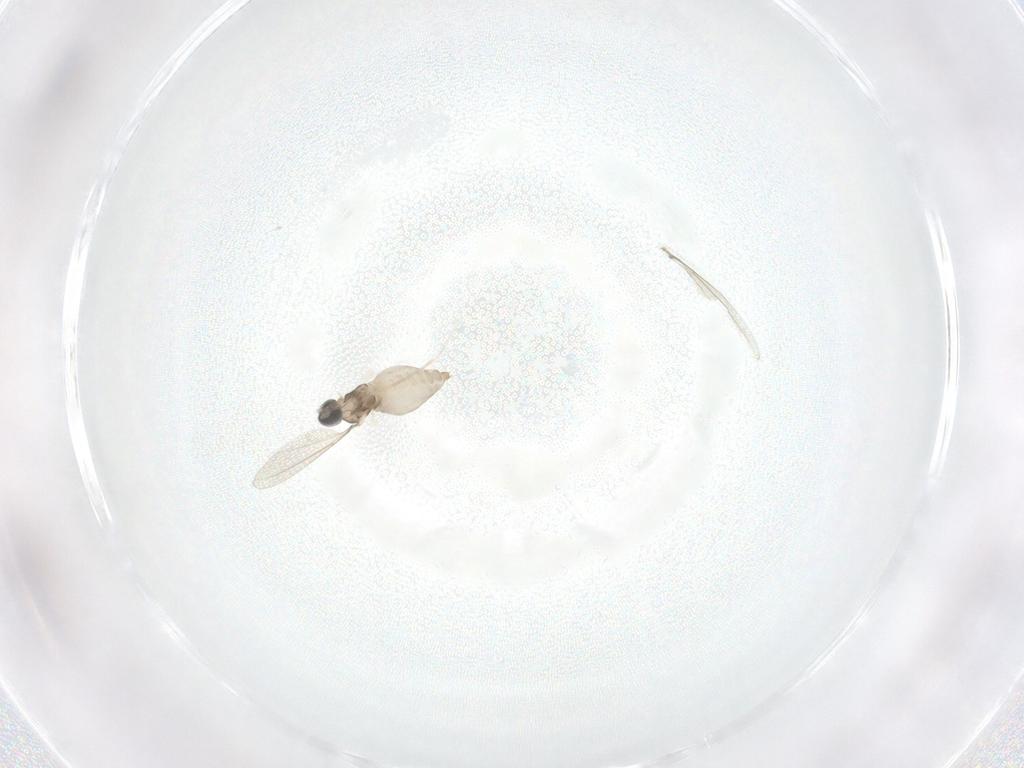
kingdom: Animalia
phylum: Arthropoda
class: Insecta
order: Diptera
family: Cecidomyiidae
